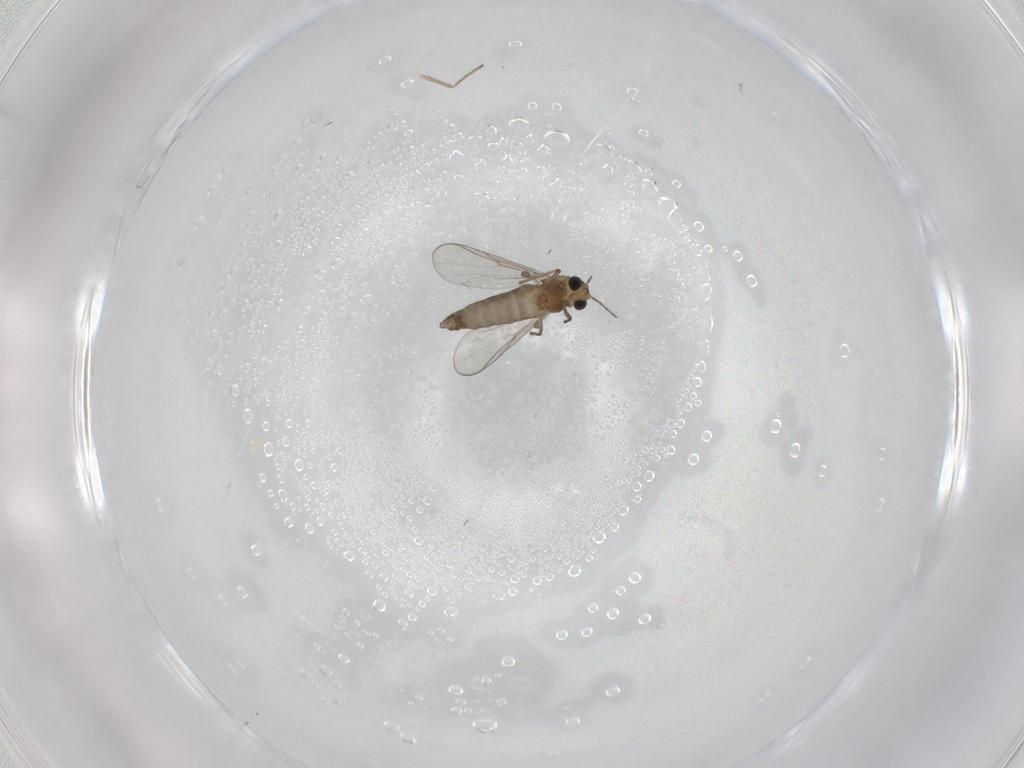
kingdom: Animalia
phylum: Arthropoda
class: Insecta
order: Diptera
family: Chironomidae
